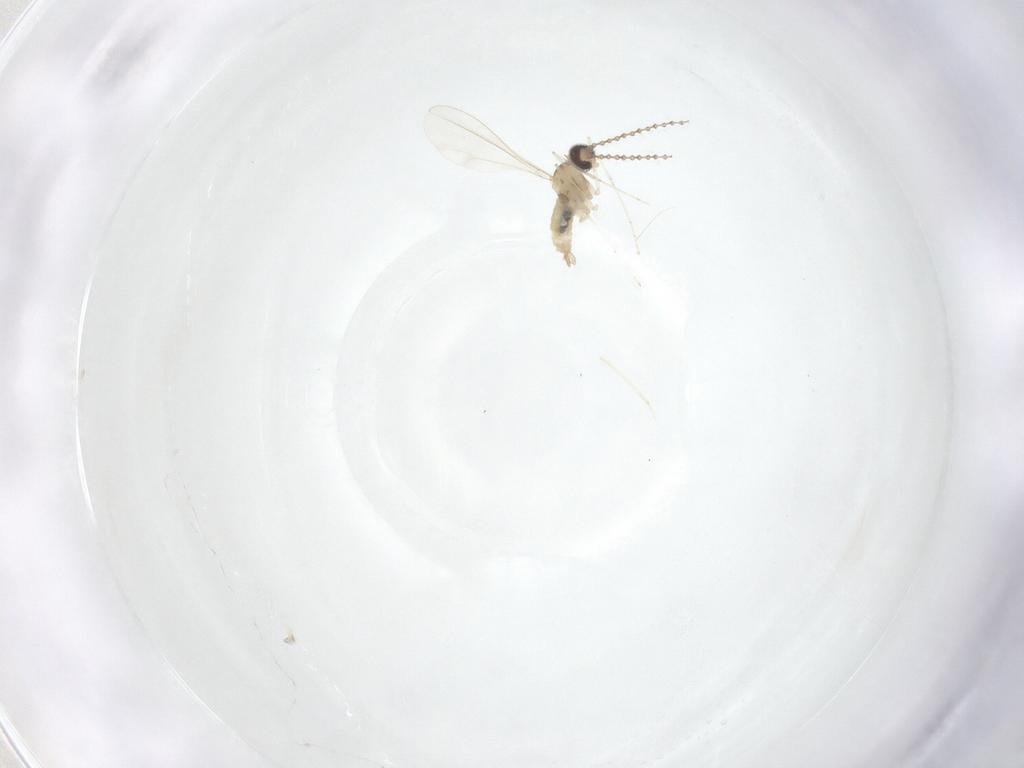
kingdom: Animalia
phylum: Arthropoda
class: Insecta
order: Diptera
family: Cecidomyiidae
